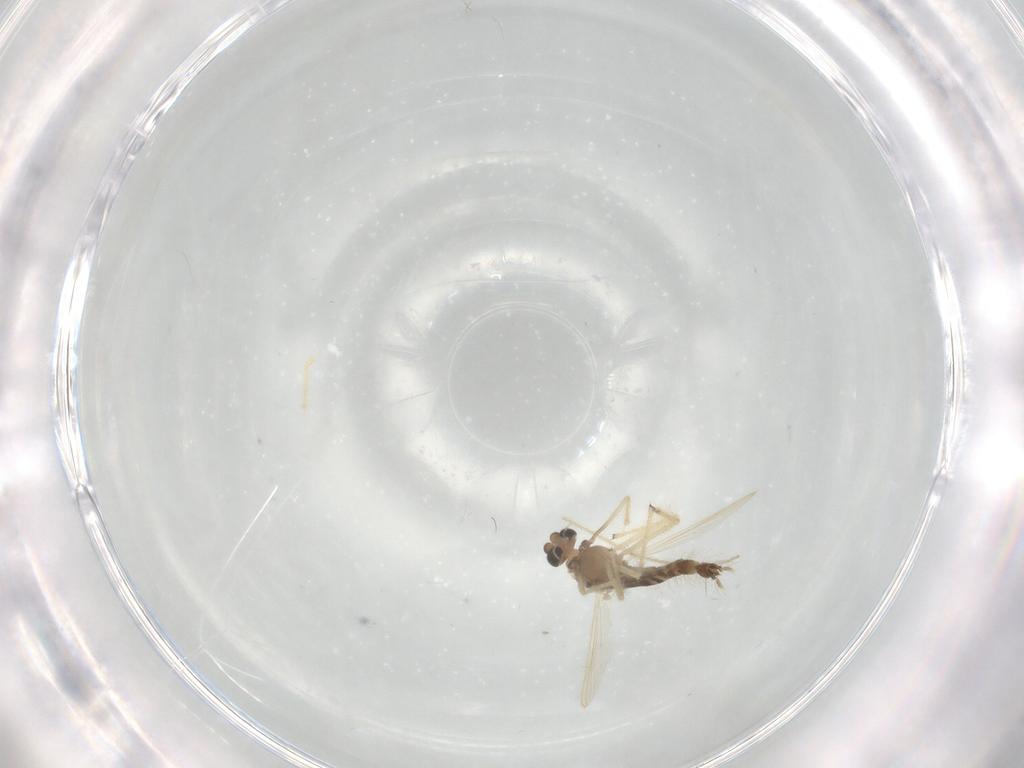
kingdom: Animalia
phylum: Arthropoda
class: Insecta
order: Diptera
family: Chironomidae
